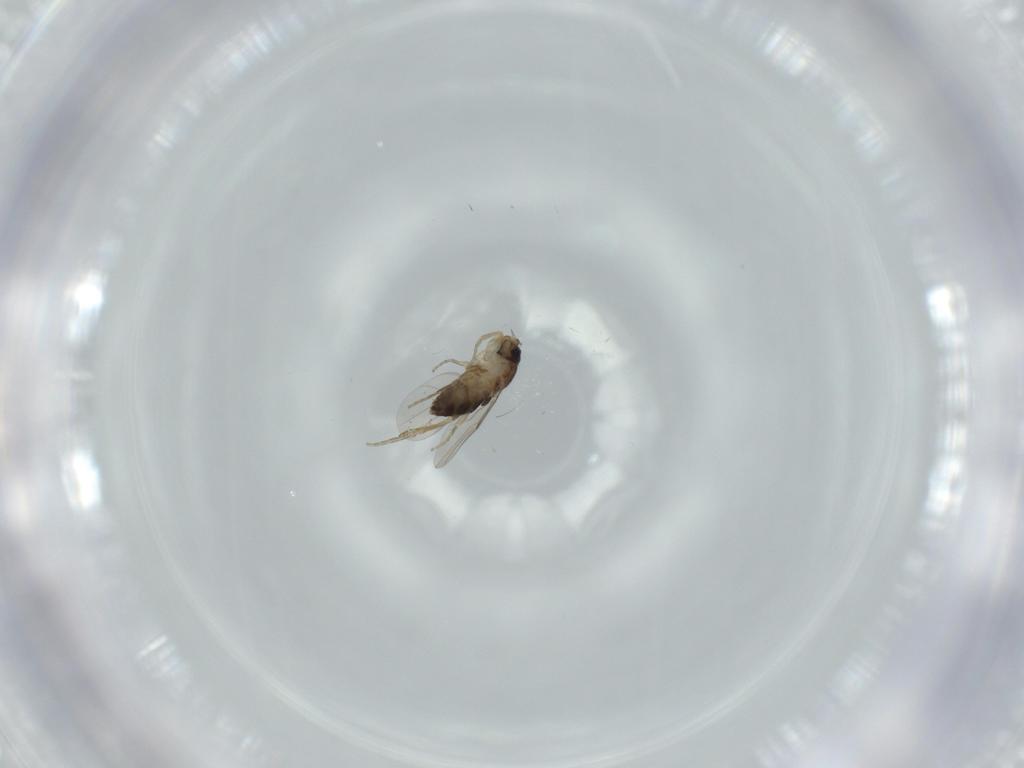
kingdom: Animalia
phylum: Arthropoda
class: Insecta
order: Diptera
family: Phoridae
